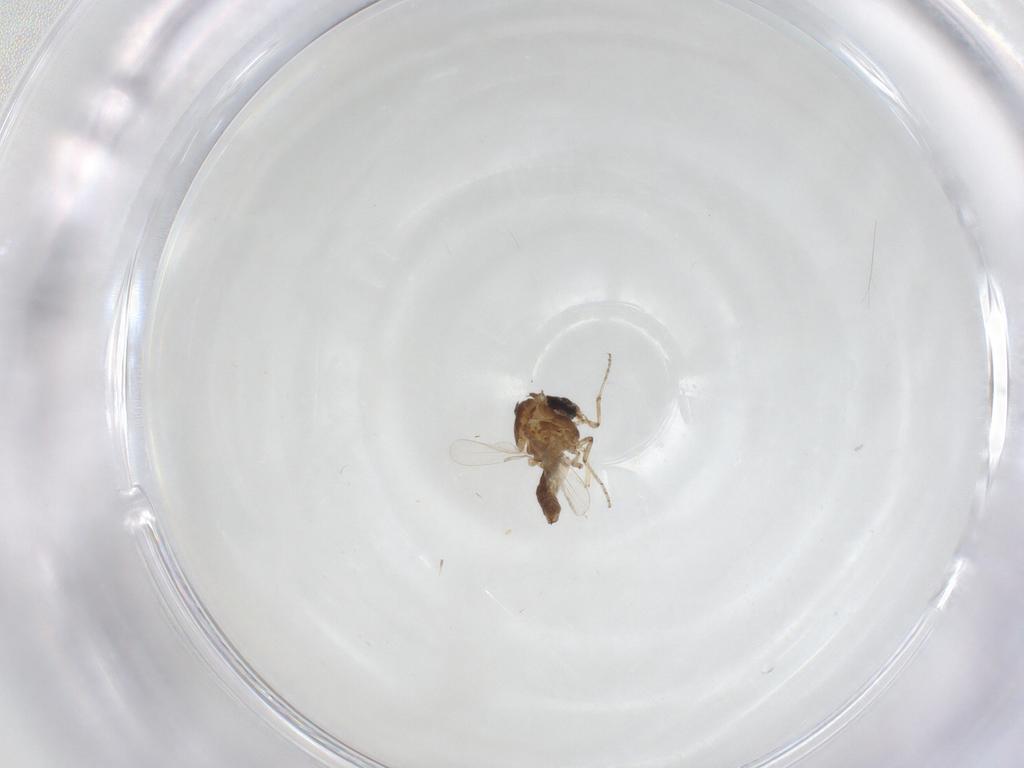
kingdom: Animalia
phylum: Arthropoda
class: Insecta
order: Diptera
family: Ceratopogonidae
